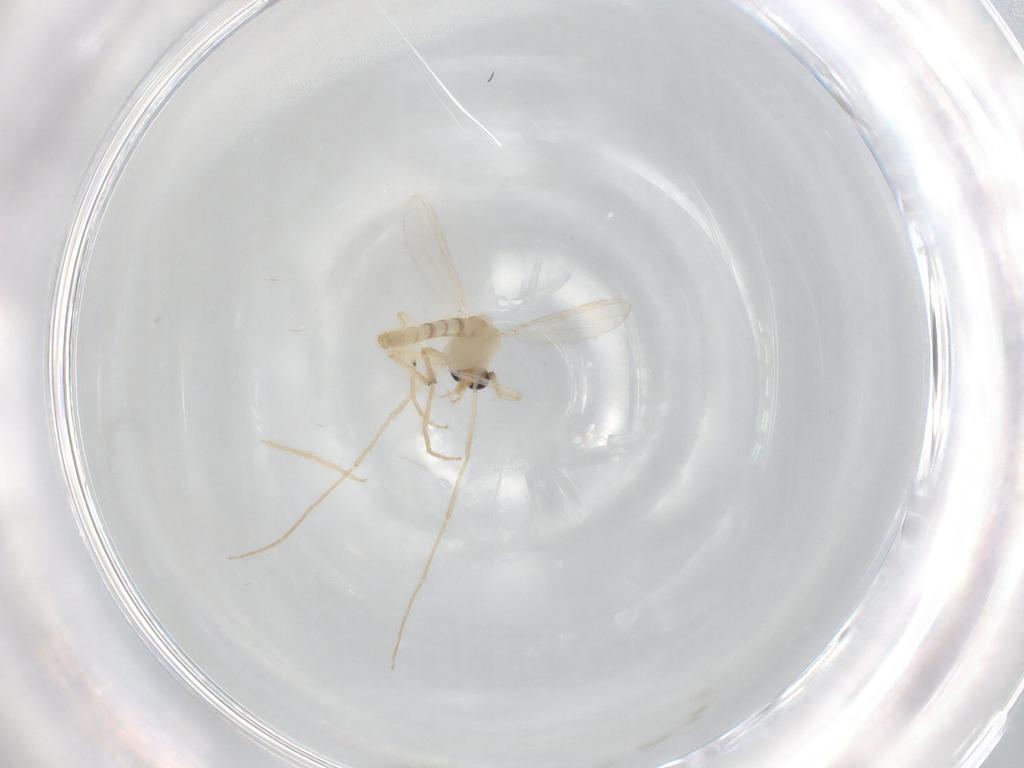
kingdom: Animalia
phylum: Arthropoda
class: Insecta
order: Diptera
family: Chironomidae
